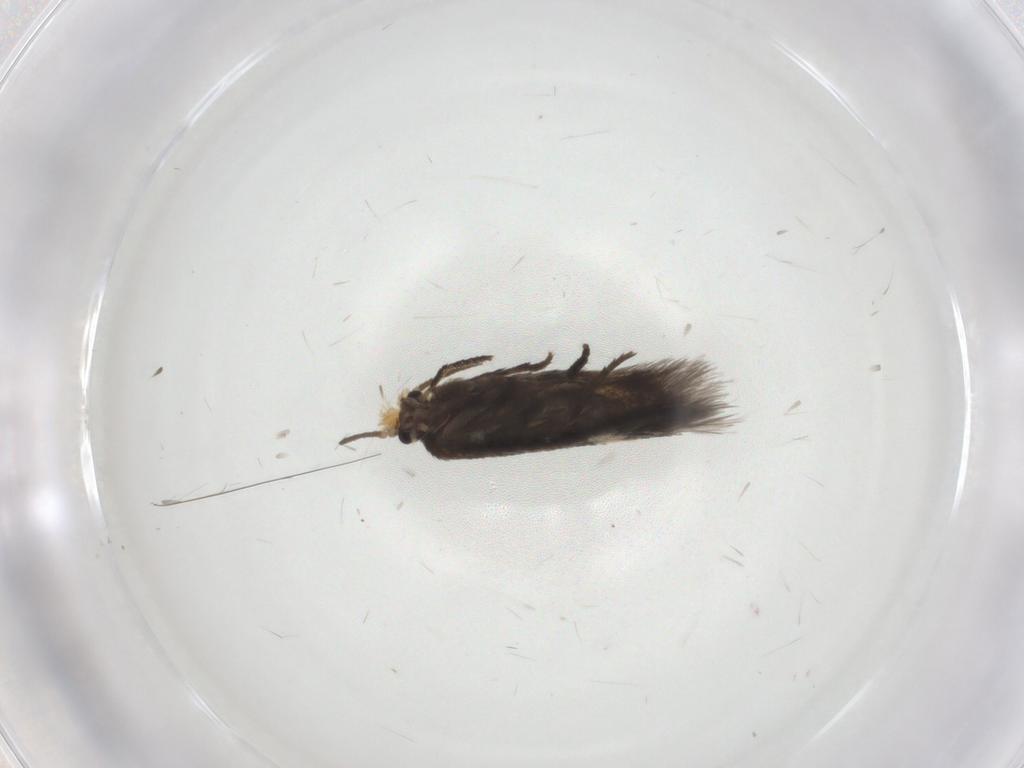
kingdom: Animalia
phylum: Arthropoda
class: Insecta
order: Lepidoptera
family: Nepticulidae
